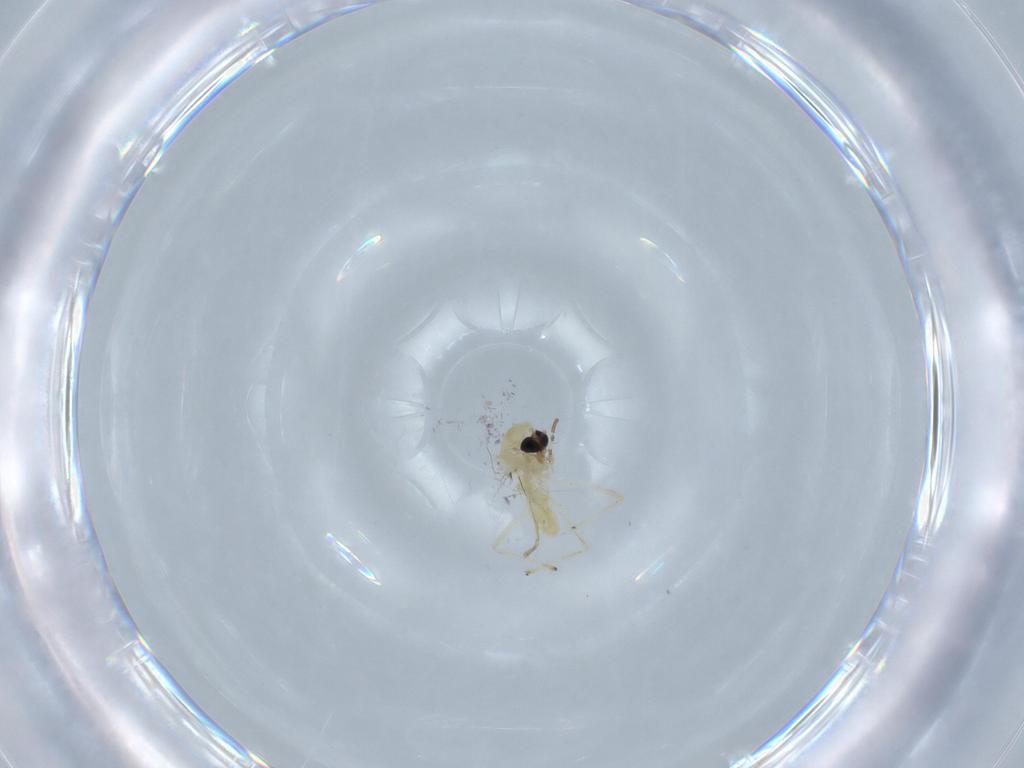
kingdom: Animalia
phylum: Arthropoda
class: Insecta
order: Diptera
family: Chironomidae
